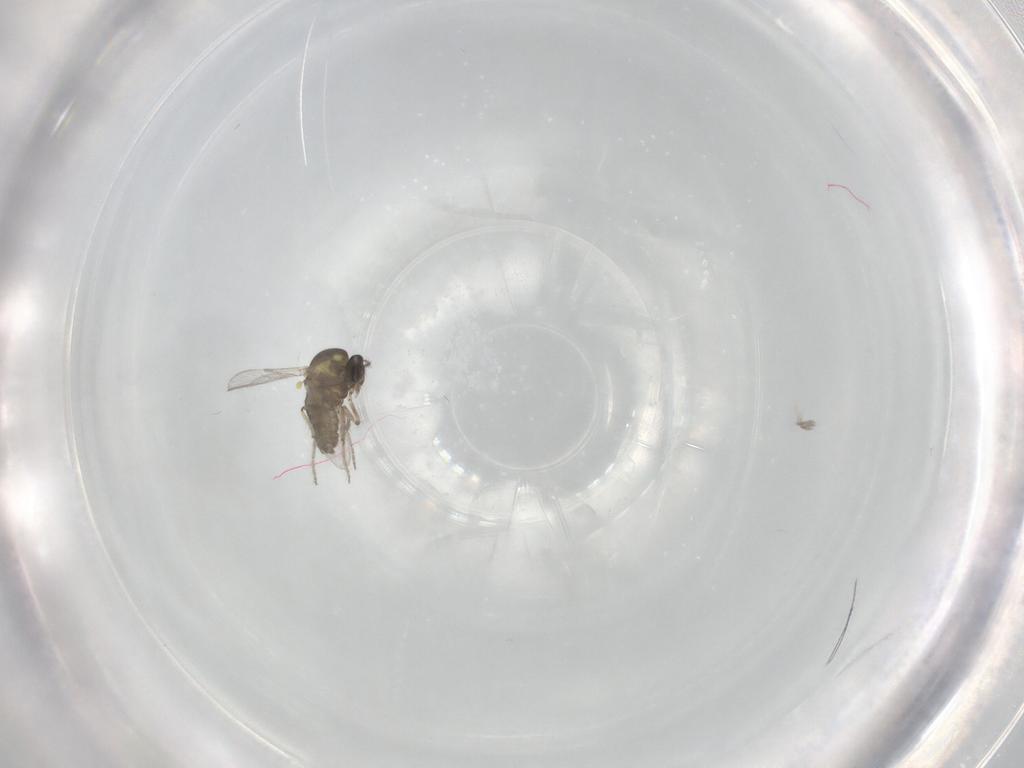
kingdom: Animalia
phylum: Arthropoda
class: Insecta
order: Diptera
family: Ceratopogonidae
